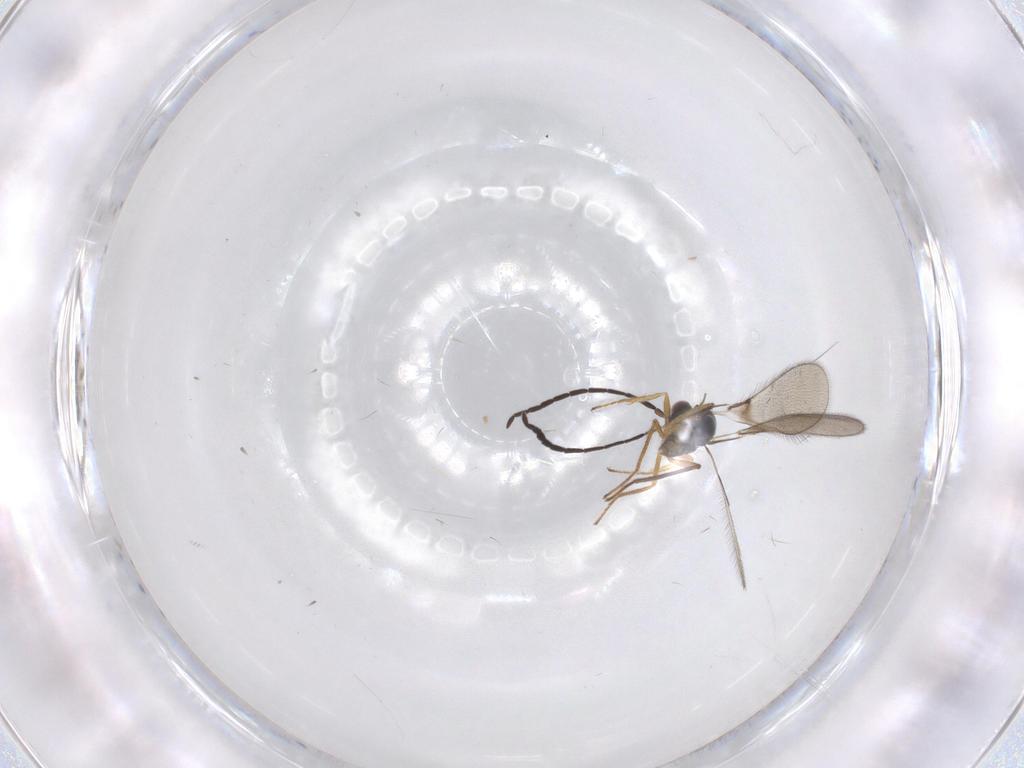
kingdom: Animalia
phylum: Arthropoda
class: Insecta
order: Hymenoptera
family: Mymaridae
